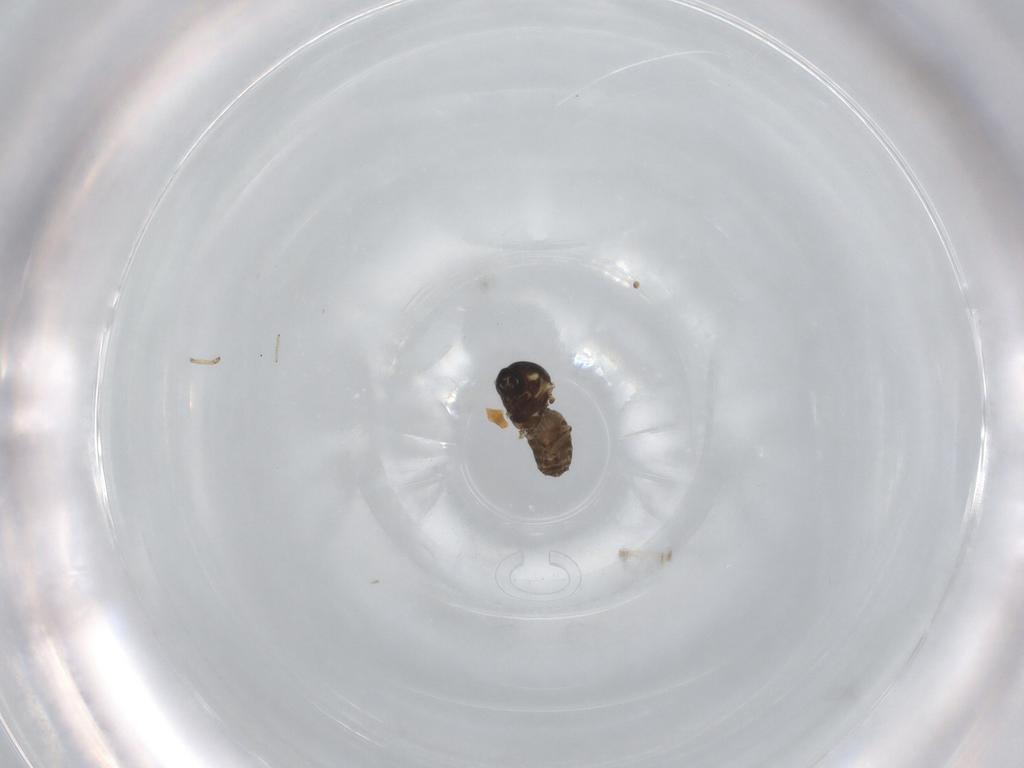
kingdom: Animalia
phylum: Arthropoda
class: Insecta
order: Diptera
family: Ceratopogonidae
